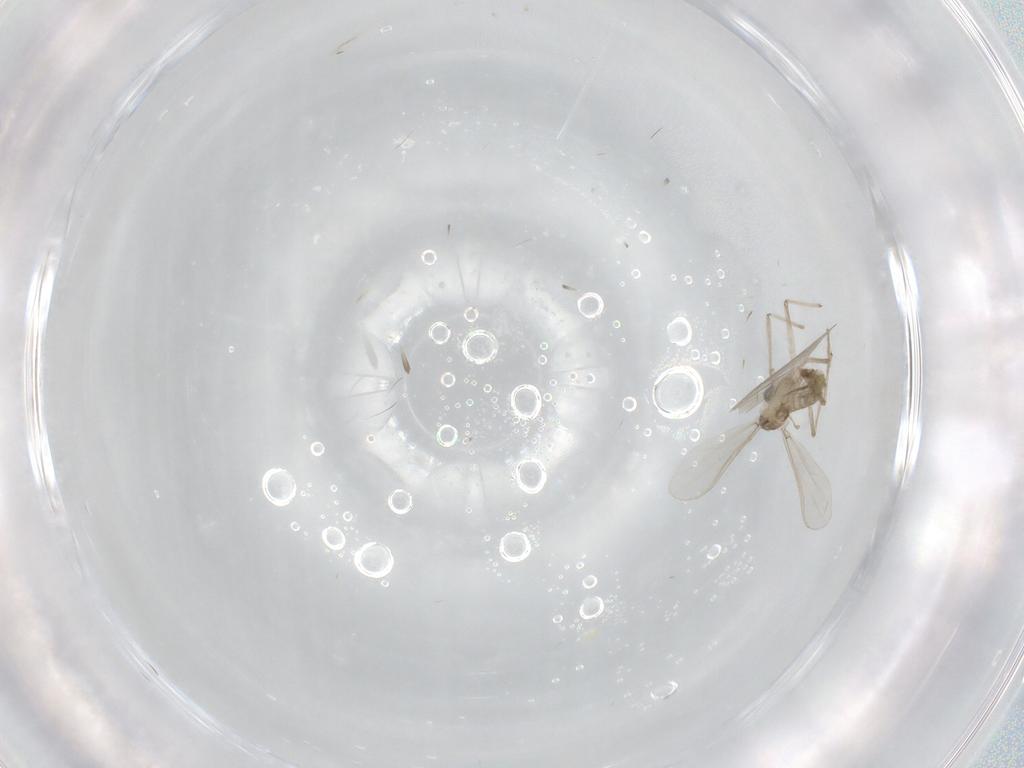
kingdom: Animalia
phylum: Arthropoda
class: Insecta
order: Diptera
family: Chironomidae
